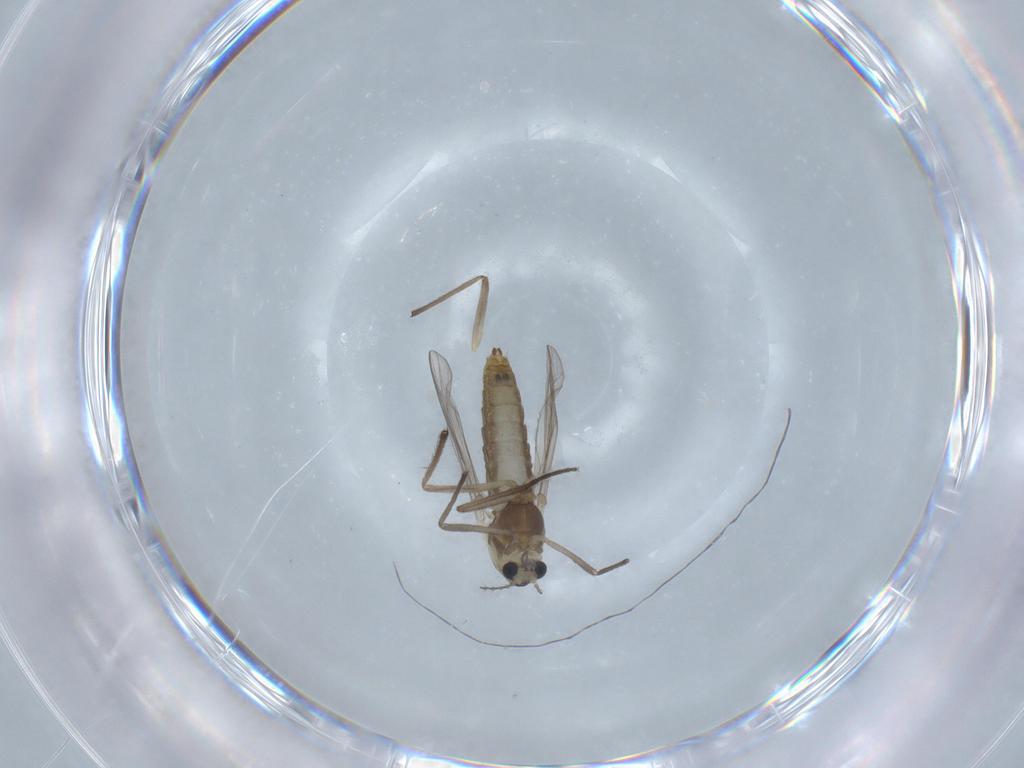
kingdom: Animalia
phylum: Arthropoda
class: Insecta
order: Diptera
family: Chironomidae
